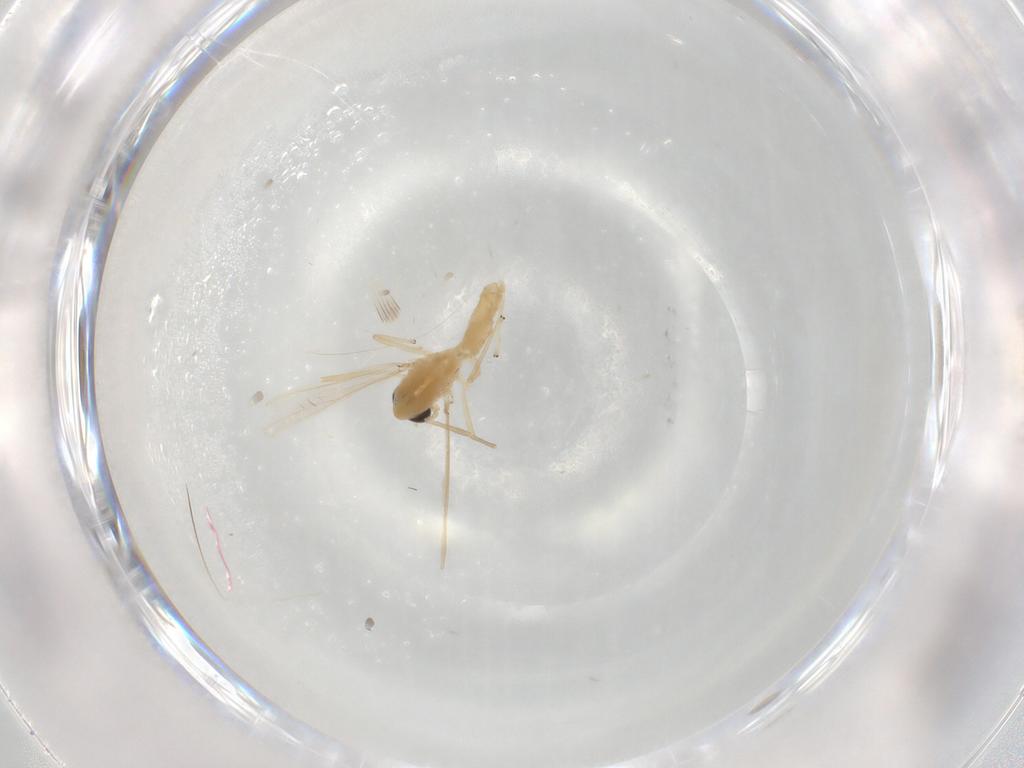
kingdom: Animalia
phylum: Arthropoda
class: Insecta
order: Diptera
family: Chironomidae
